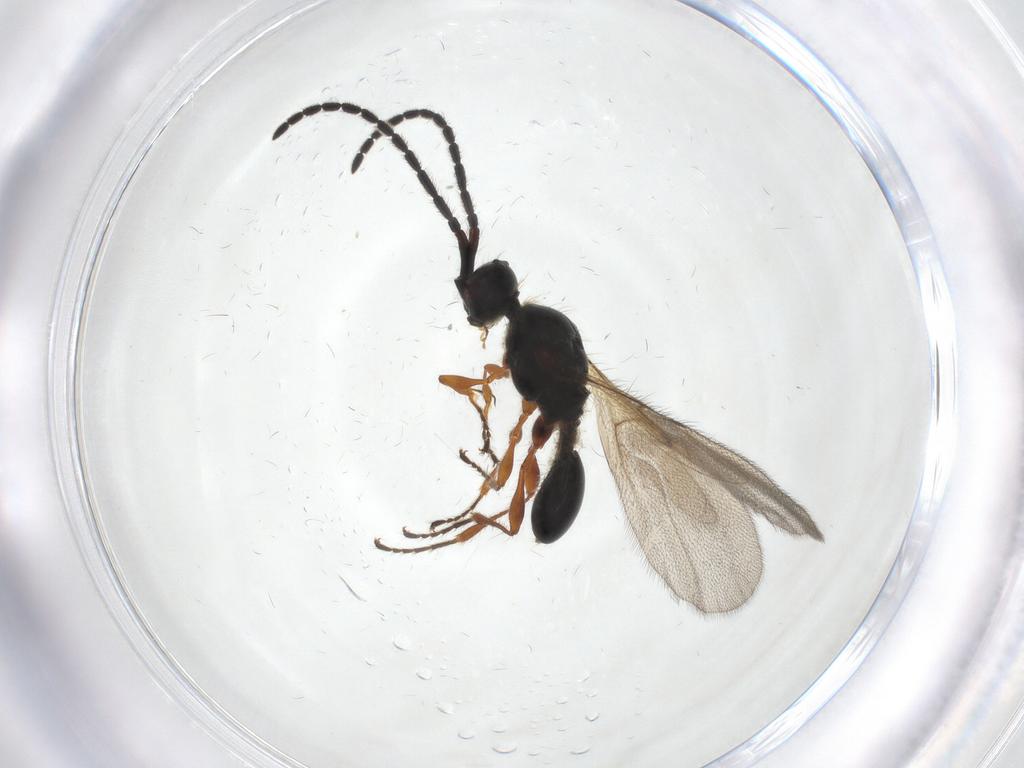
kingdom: Animalia
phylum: Arthropoda
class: Insecta
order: Hymenoptera
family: Diapriidae
